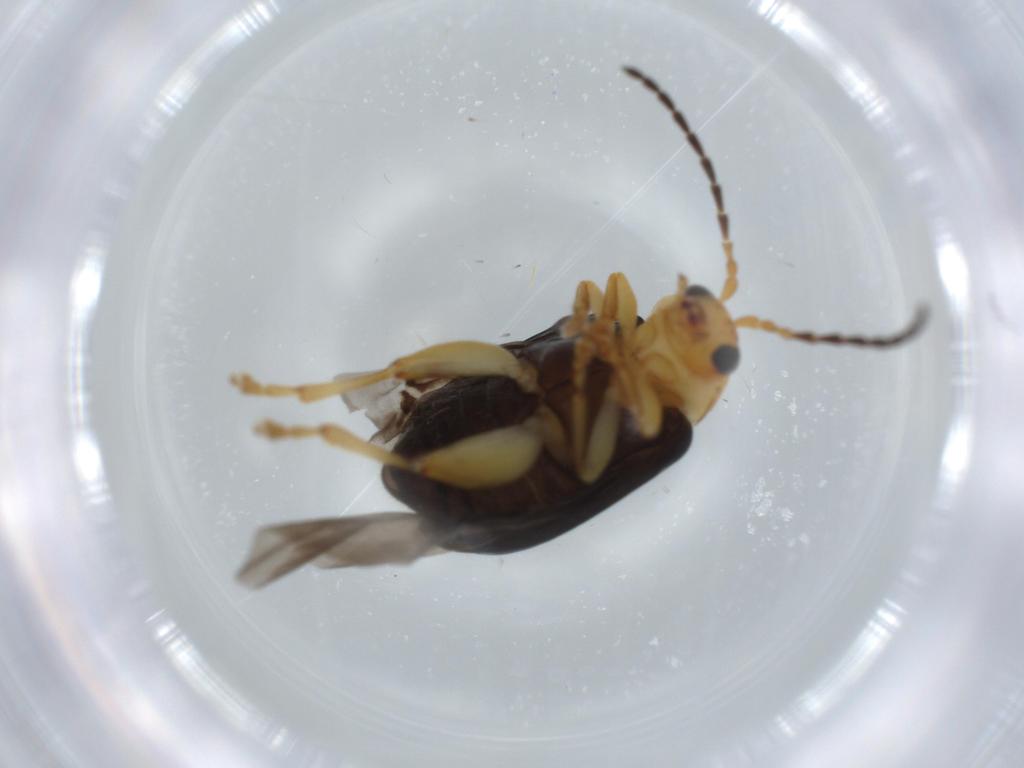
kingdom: Animalia
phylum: Arthropoda
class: Insecta
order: Coleoptera
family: Chrysomelidae
